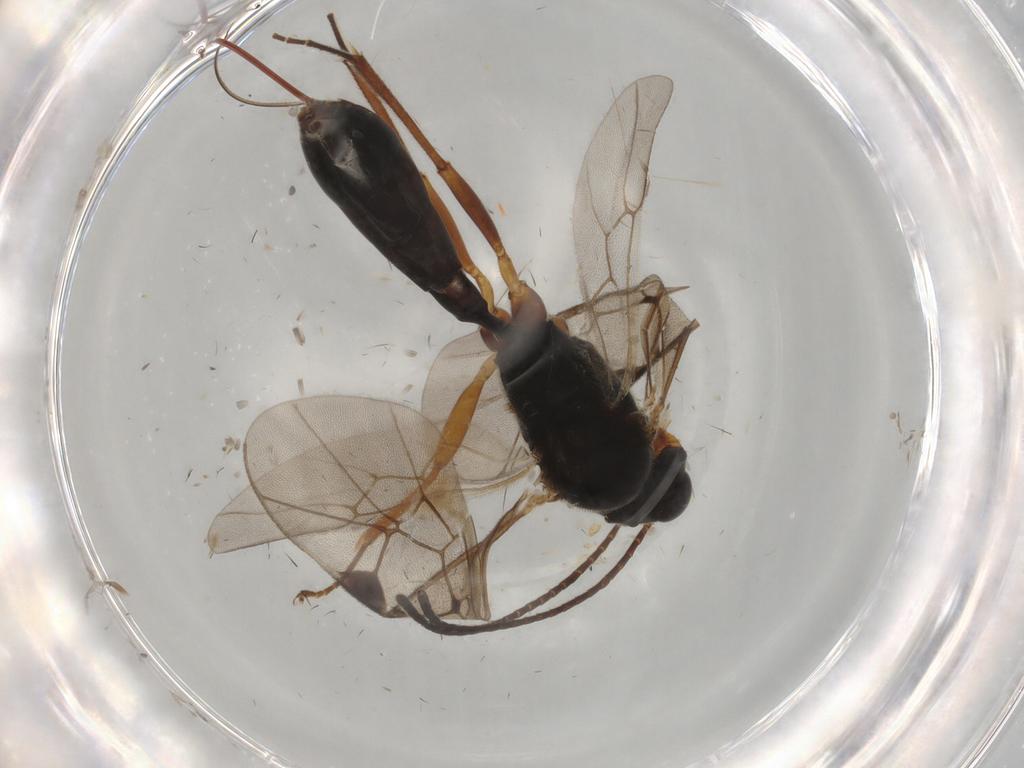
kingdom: Animalia
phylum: Arthropoda
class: Insecta
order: Hymenoptera
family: Ichneumonidae
